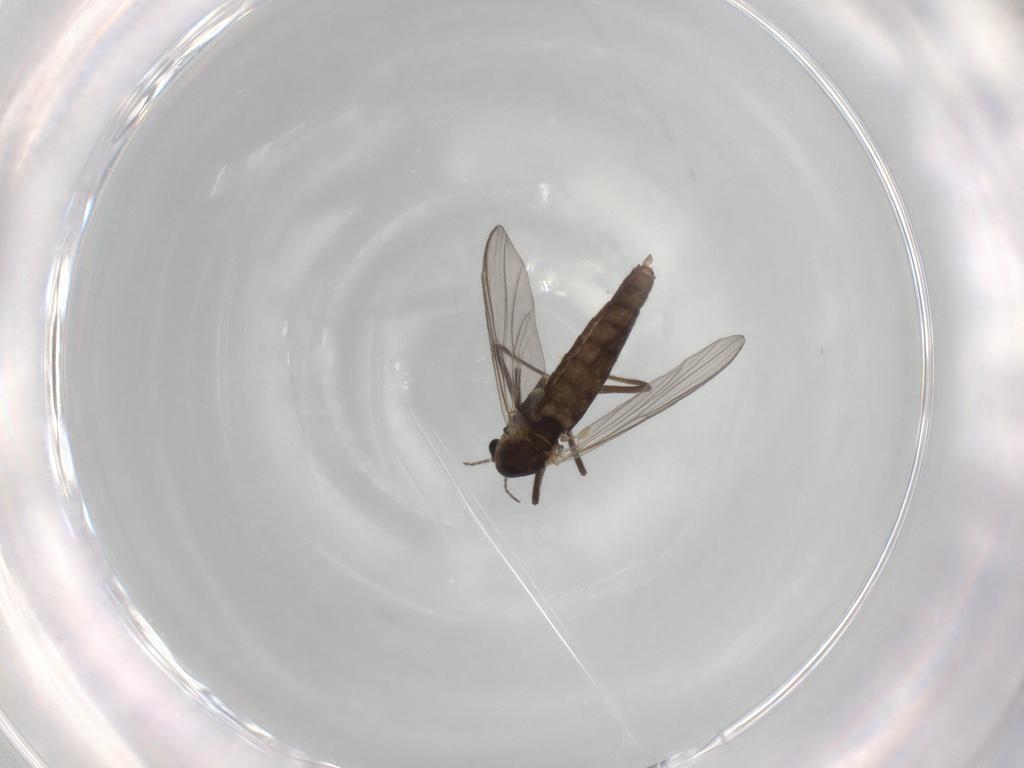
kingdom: Animalia
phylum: Arthropoda
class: Insecta
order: Diptera
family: Chironomidae
